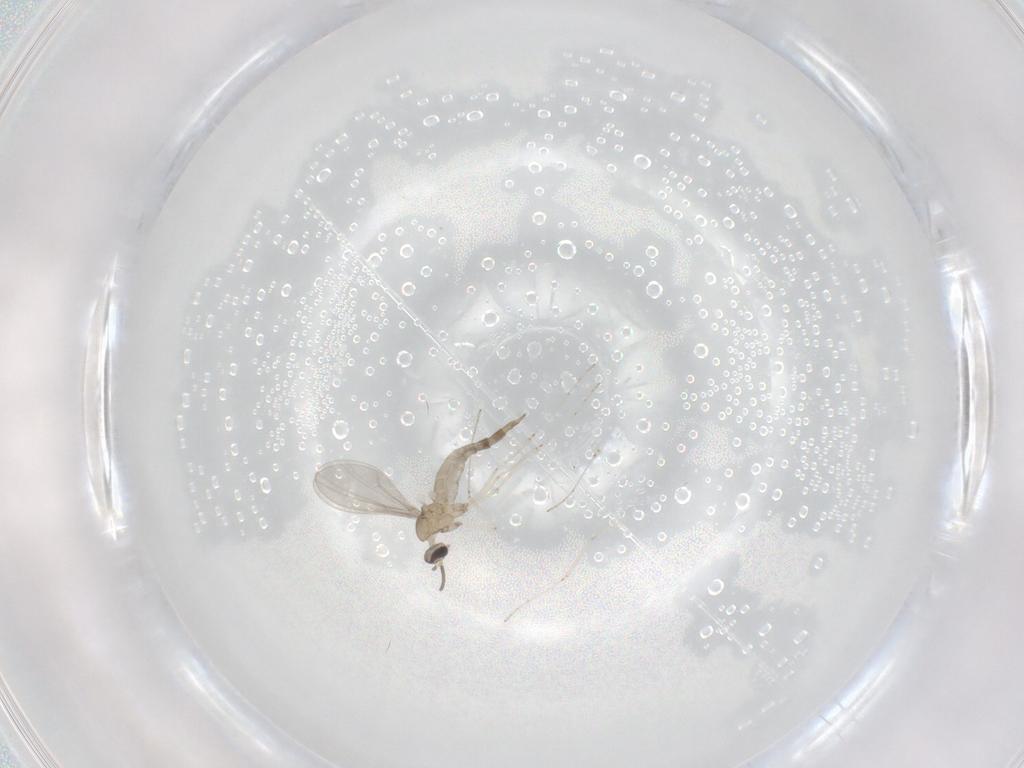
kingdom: Animalia
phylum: Arthropoda
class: Insecta
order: Diptera
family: Cecidomyiidae
